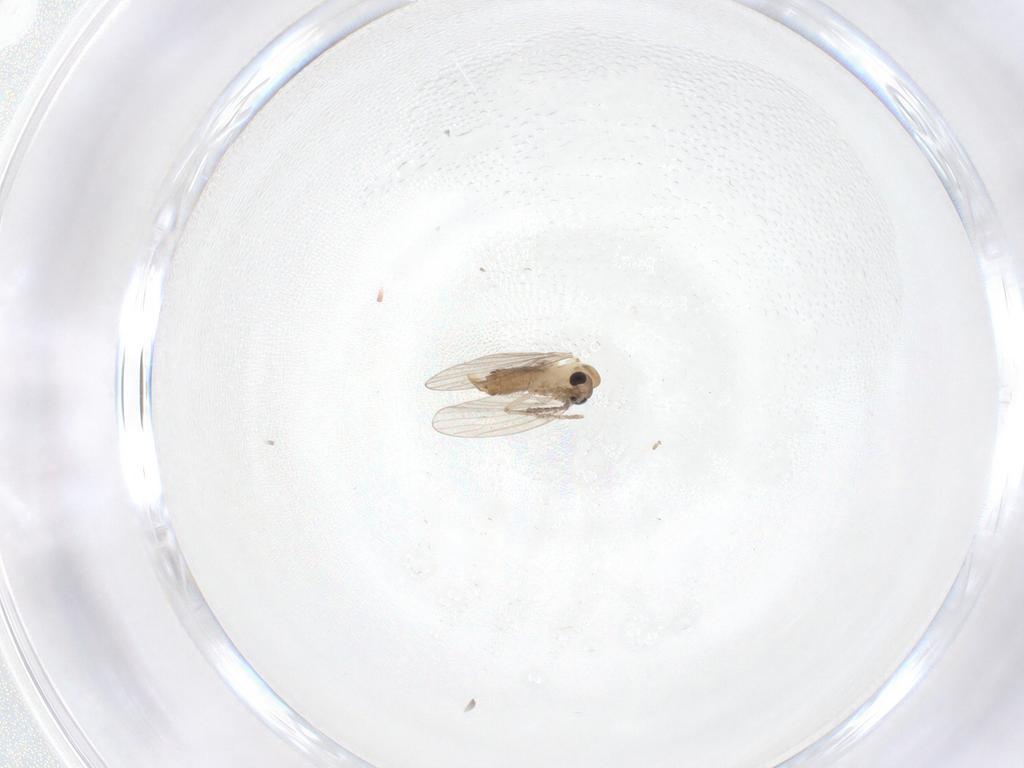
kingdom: Animalia
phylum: Arthropoda
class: Insecta
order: Diptera
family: Psychodidae
